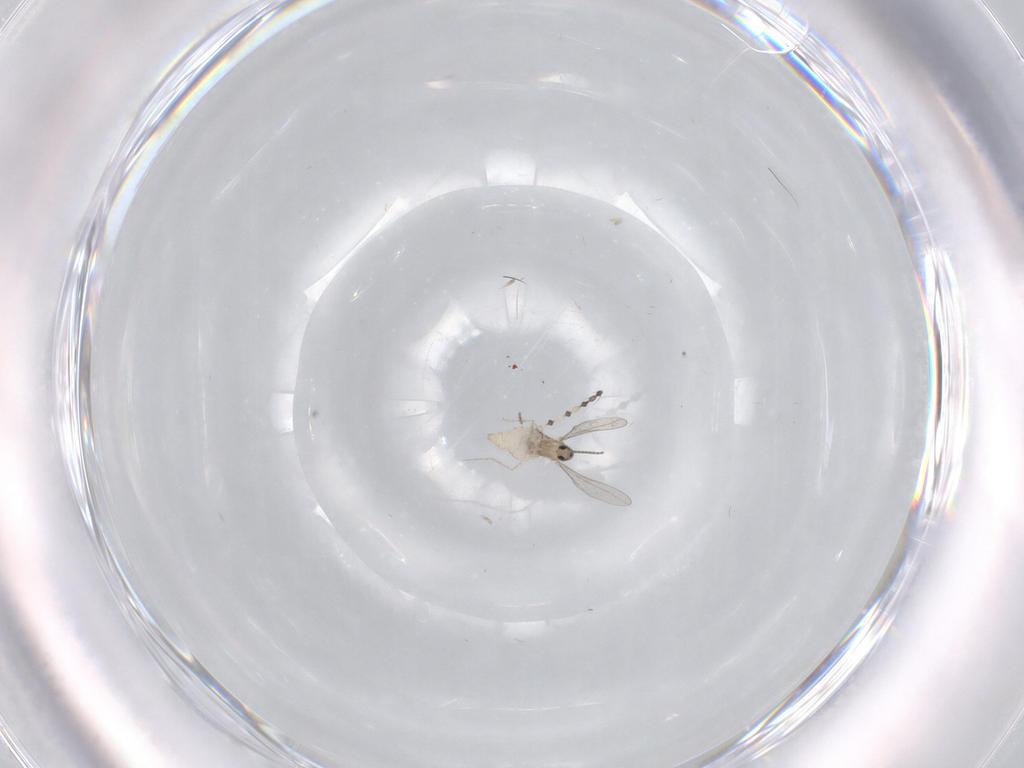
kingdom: Animalia
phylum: Arthropoda
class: Insecta
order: Diptera
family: Cecidomyiidae
